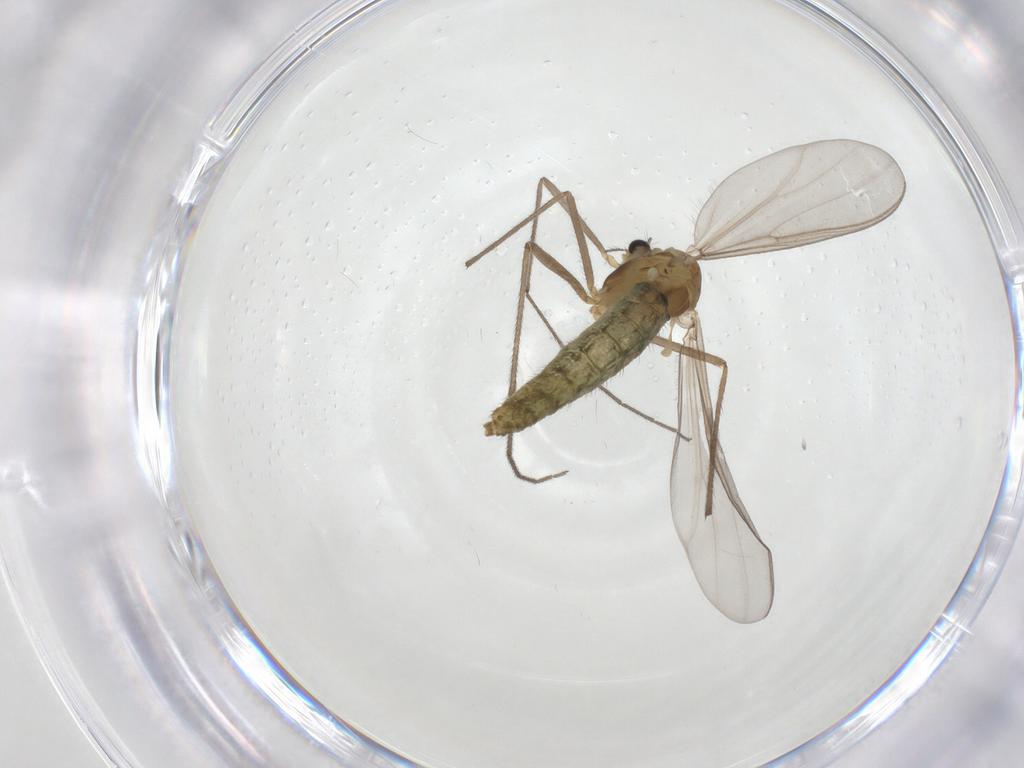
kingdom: Animalia
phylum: Arthropoda
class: Insecta
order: Diptera
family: Chironomidae
